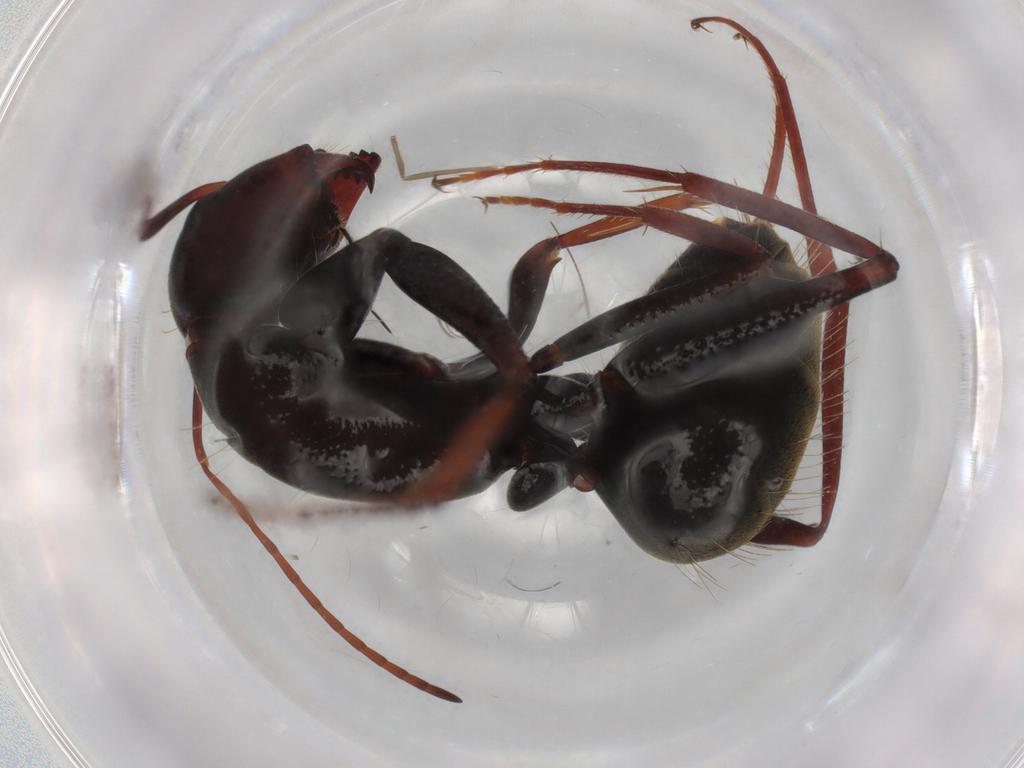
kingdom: Animalia
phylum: Arthropoda
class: Insecta
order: Hymenoptera
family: Formicidae
